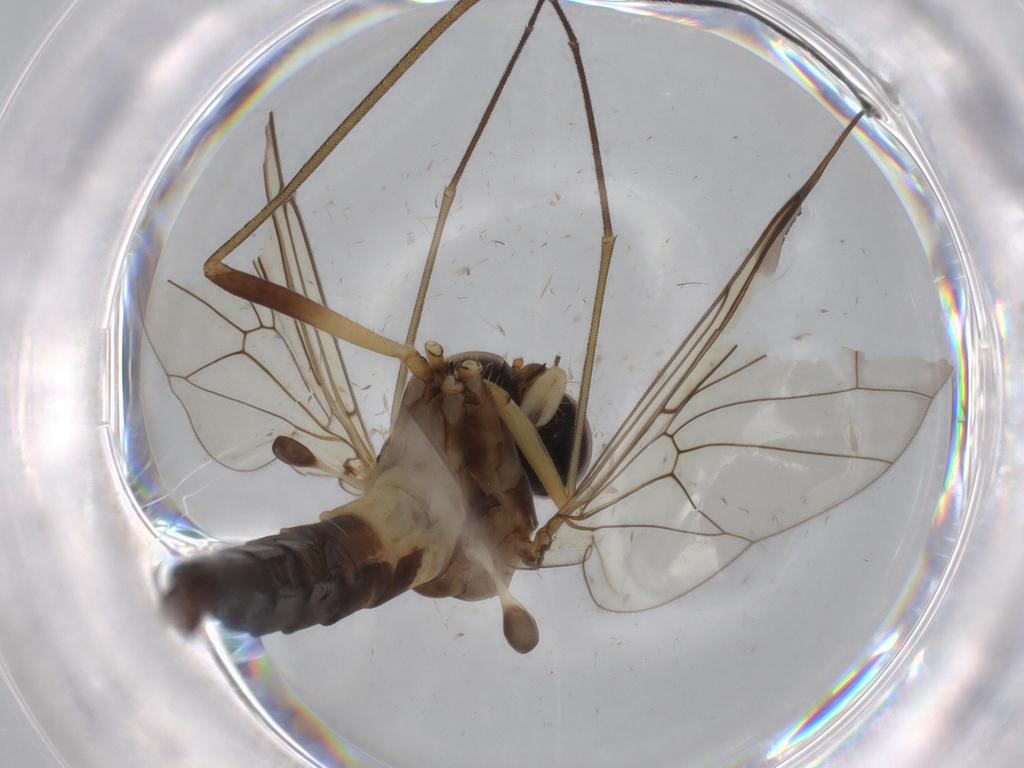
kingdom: Animalia
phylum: Arthropoda
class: Insecta
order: Diptera
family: Cecidomyiidae
